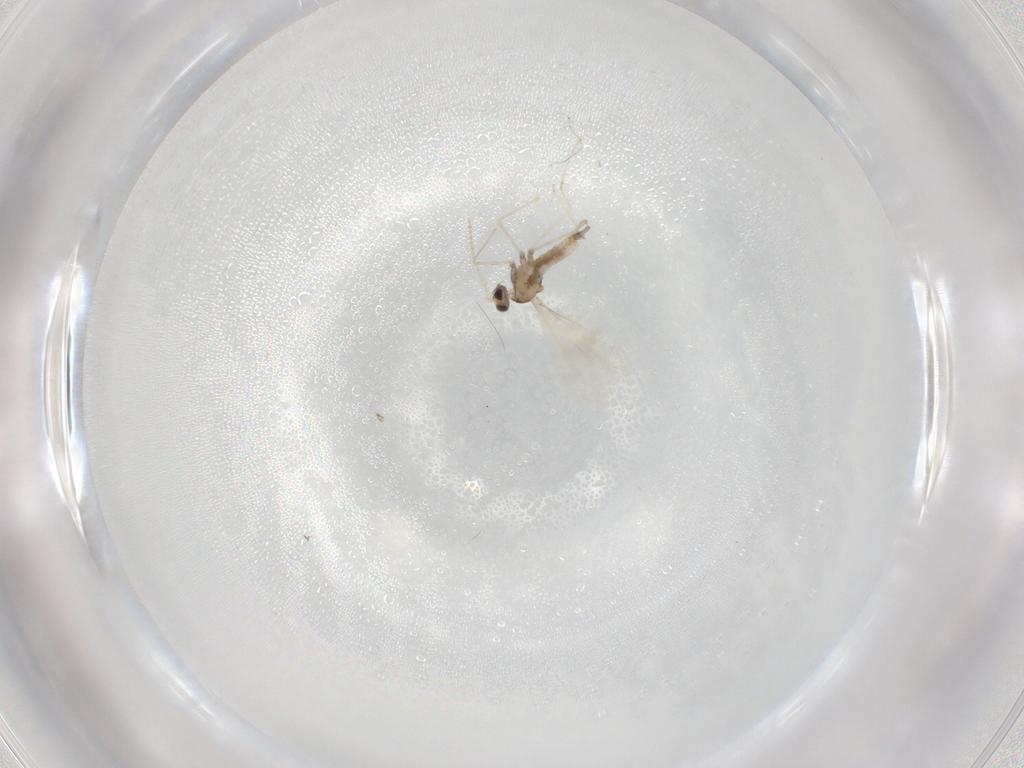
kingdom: Animalia
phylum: Arthropoda
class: Insecta
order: Diptera
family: Cecidomyiidae
